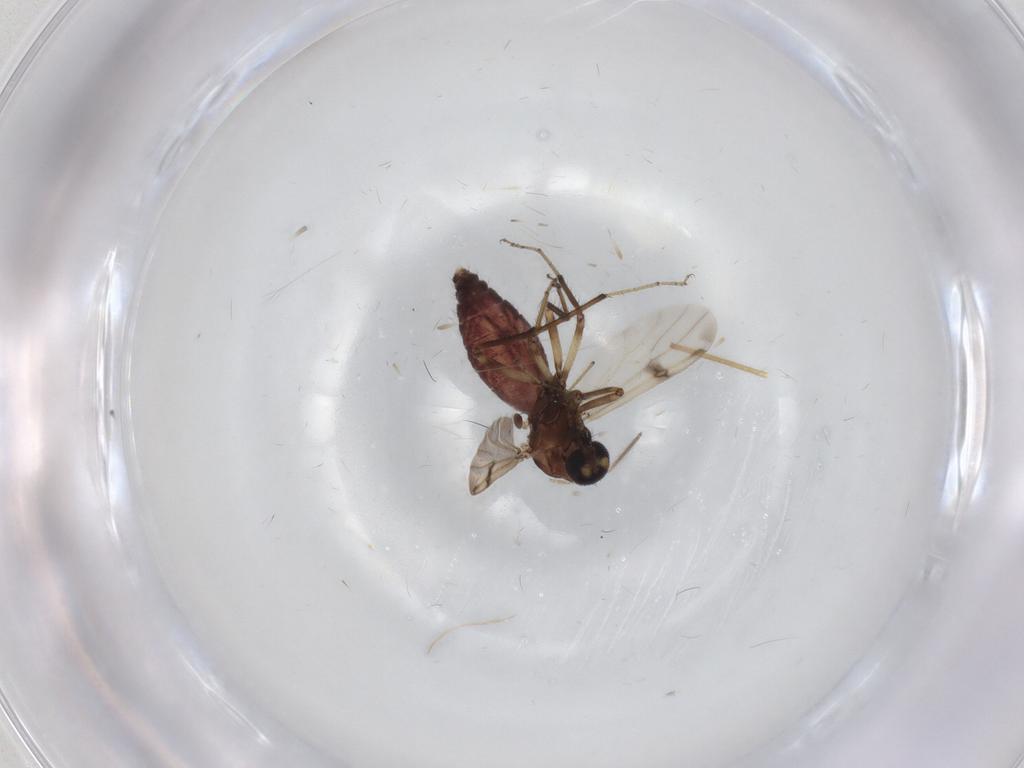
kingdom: Animalia
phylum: Arthropoda
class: Insecta
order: Diptera
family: Ceratopogonidae
